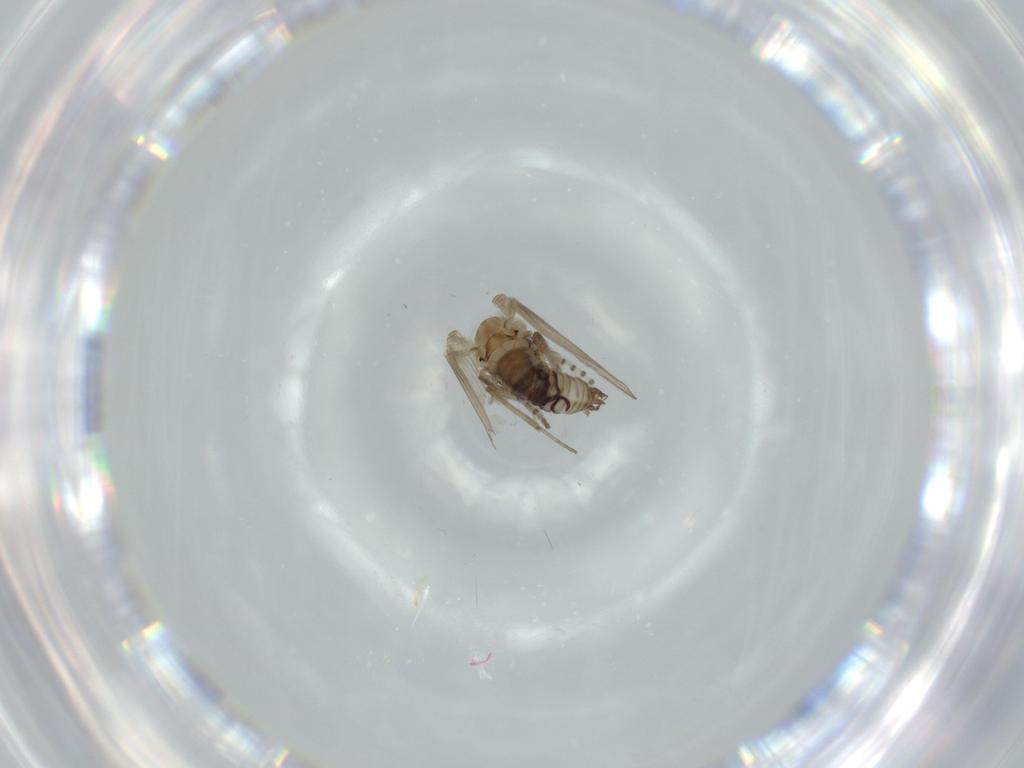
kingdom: Animalia
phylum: Arthropoda
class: Insecta
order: Diptera
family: Psychodidae
